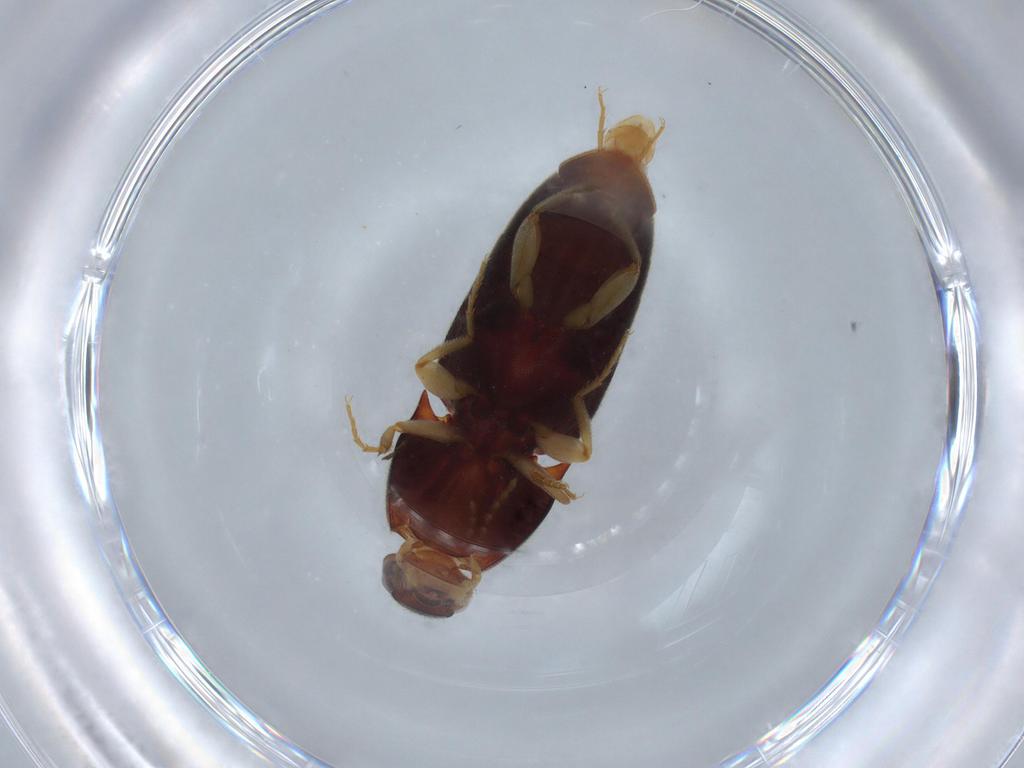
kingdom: Animalia
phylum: Arthropoda
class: Insecta
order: Coleoptera
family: Elateridae
